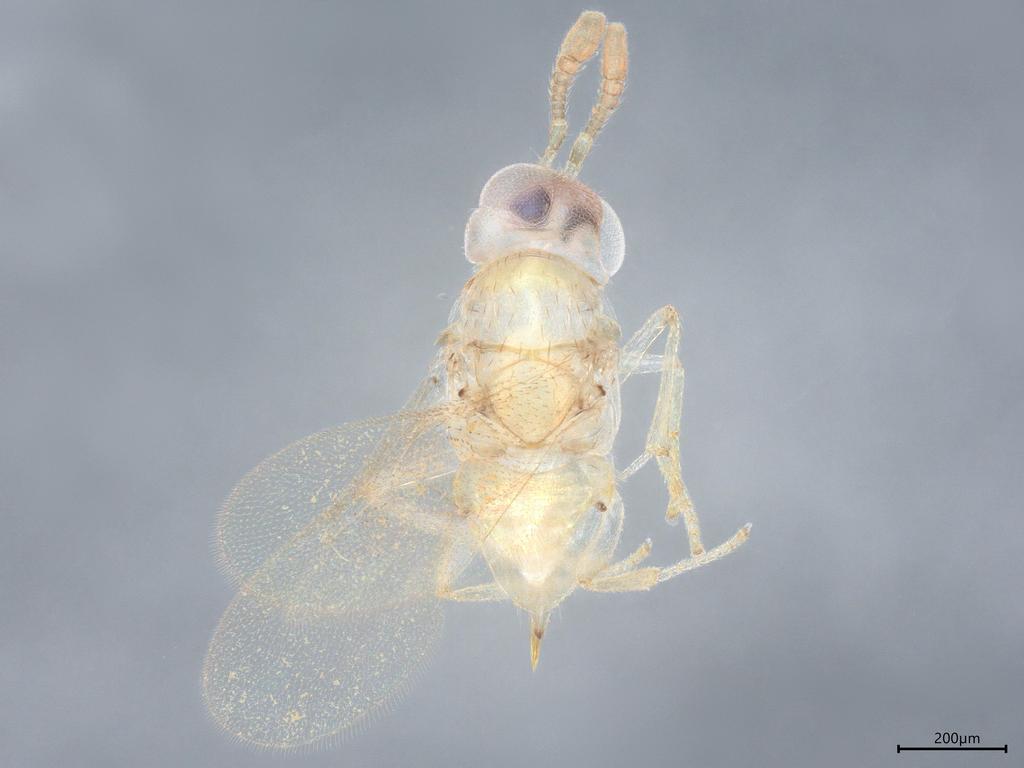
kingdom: Animalia
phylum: Arthropoda
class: Insecta
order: Hymenoptera
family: Encyrtidae
